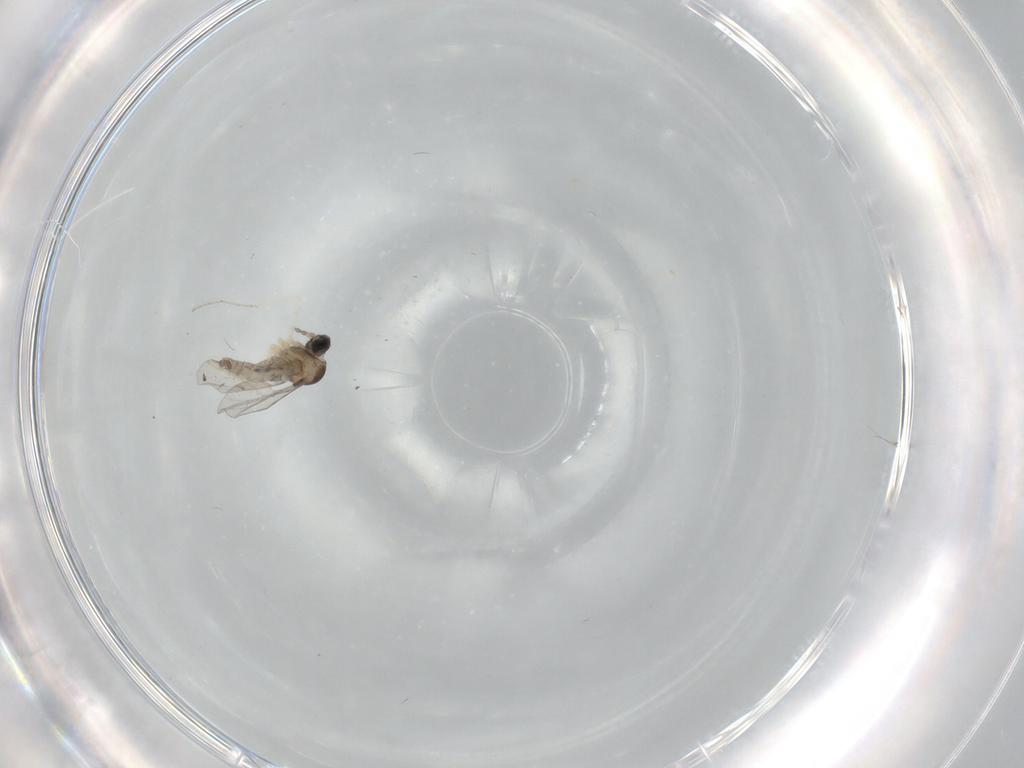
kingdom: Animalia
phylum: Arthropoda
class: Insecta
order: Diptera
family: Cecidomyiidae
